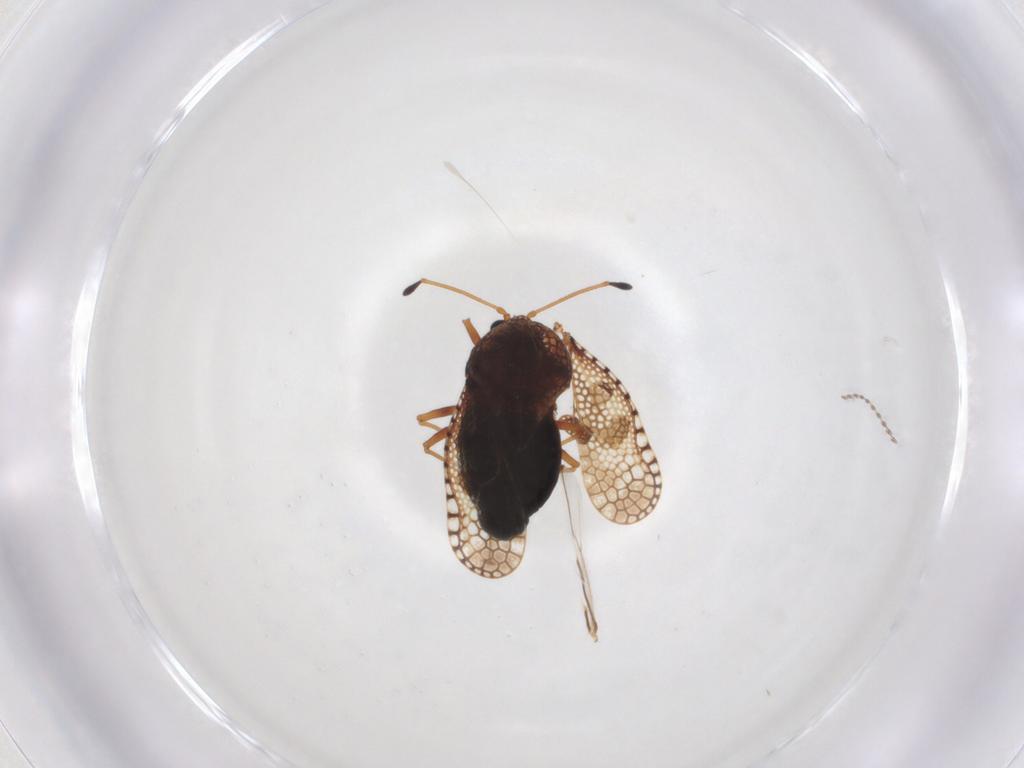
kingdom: Animalia
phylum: Arthropoda
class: Insecta
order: Hemiptera
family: Tingidae
